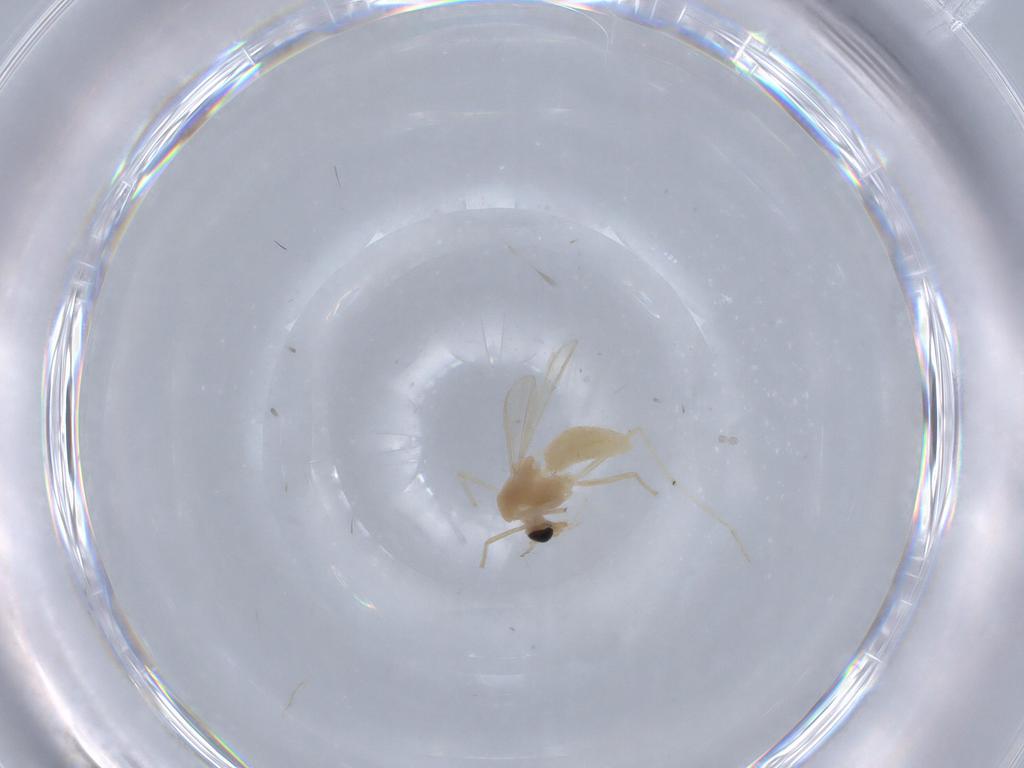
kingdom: Animalia
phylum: Arthropoda
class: Insecta
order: Diptera
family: Chironomidae
